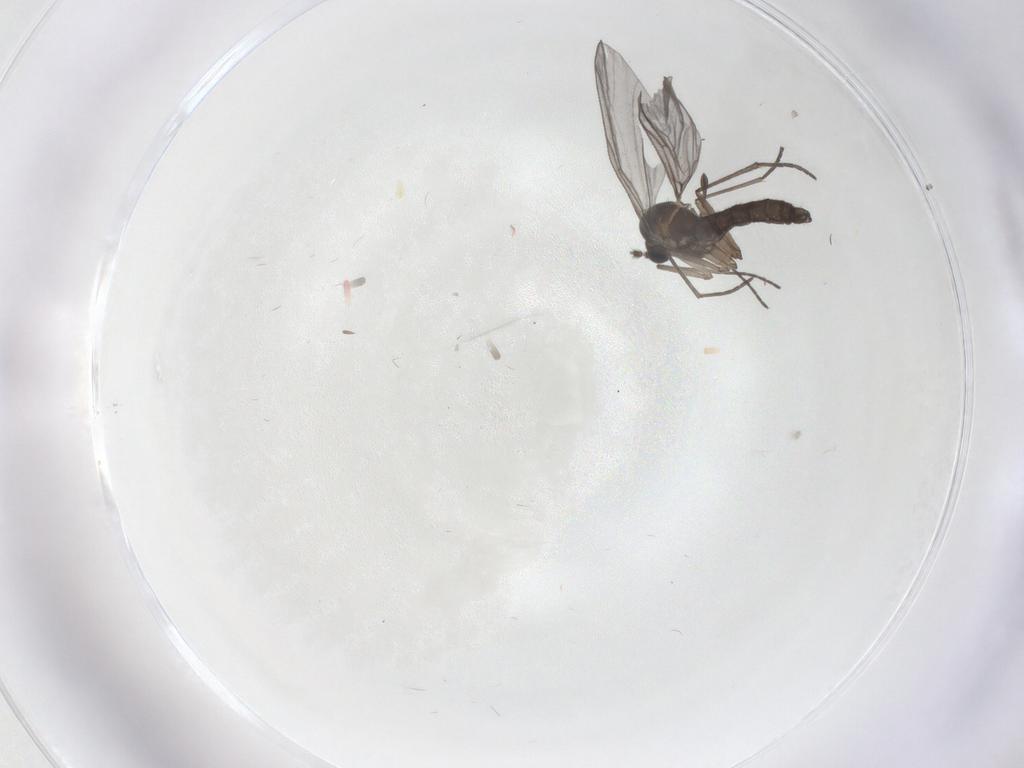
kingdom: Animalia
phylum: Arthropoda
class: Insecta
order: Diptera
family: Sciaridae
